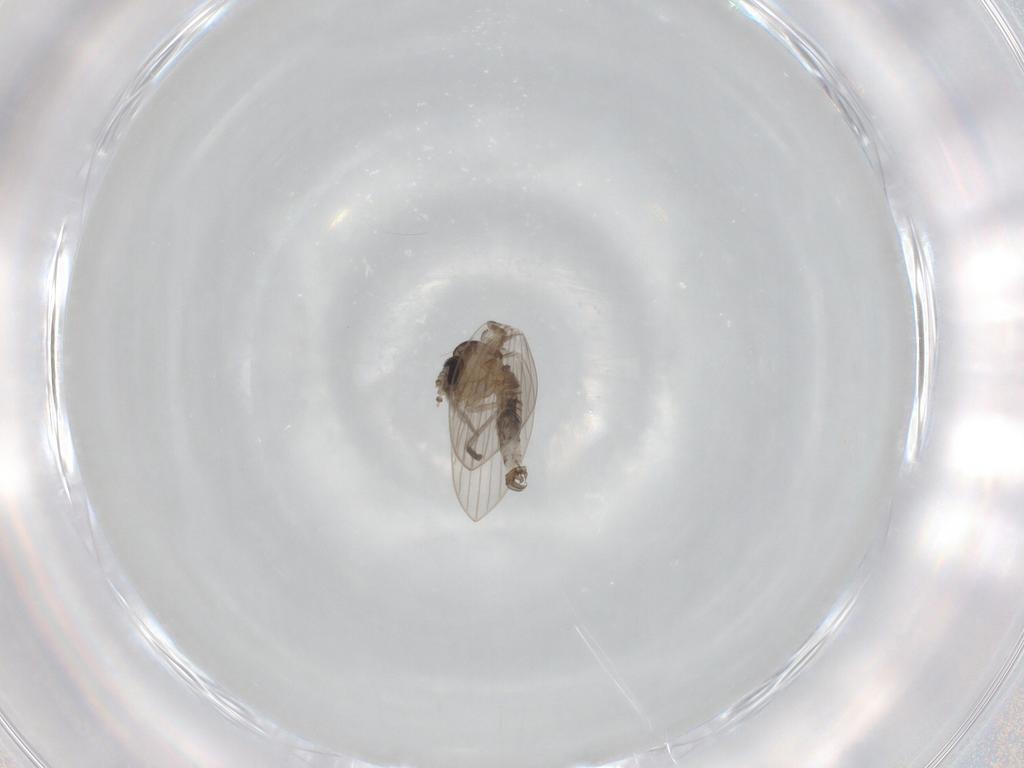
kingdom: Animalia
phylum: Arthropoda
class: Insecta
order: Diptera
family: Psychodidae
